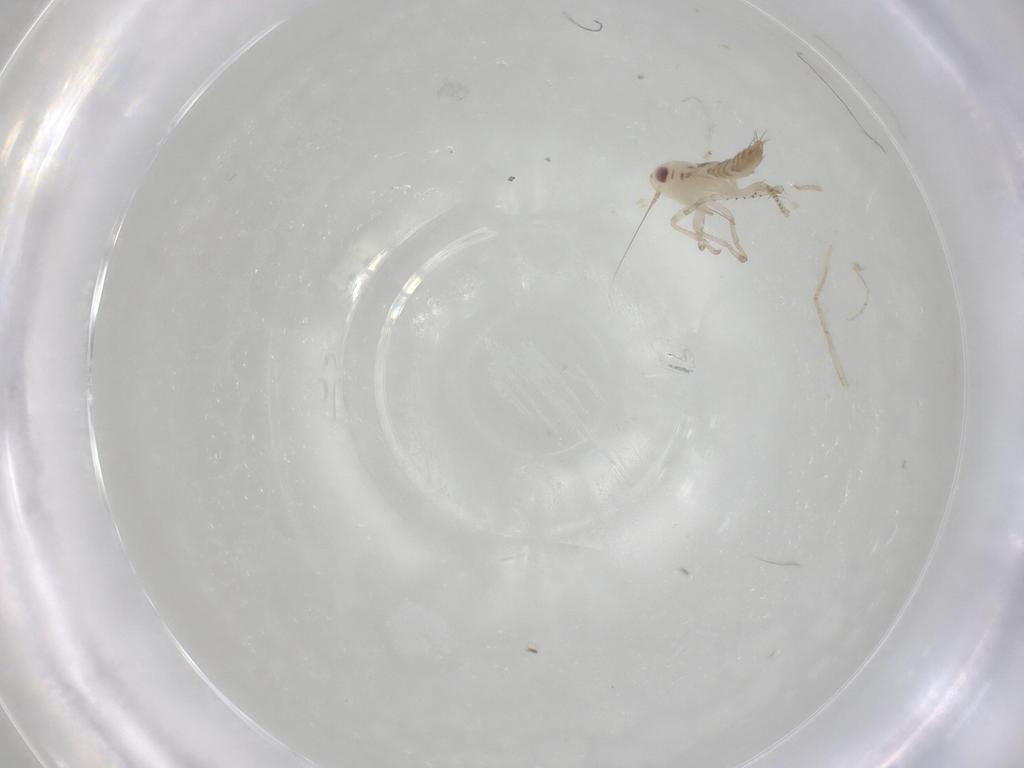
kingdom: Animalia
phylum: Arthropoda
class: Insecta
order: Hemiptera
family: Cicadellidae
